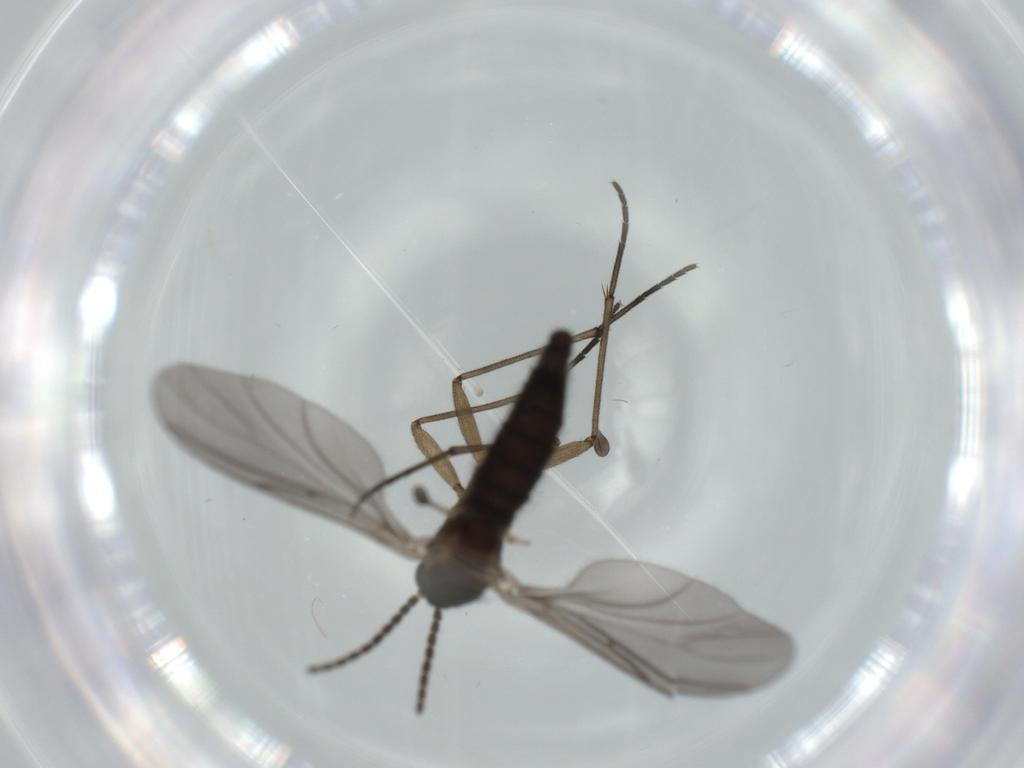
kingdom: Animalia
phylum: Arthropoda
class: Insecta
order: Diptera
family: Sciaridae
